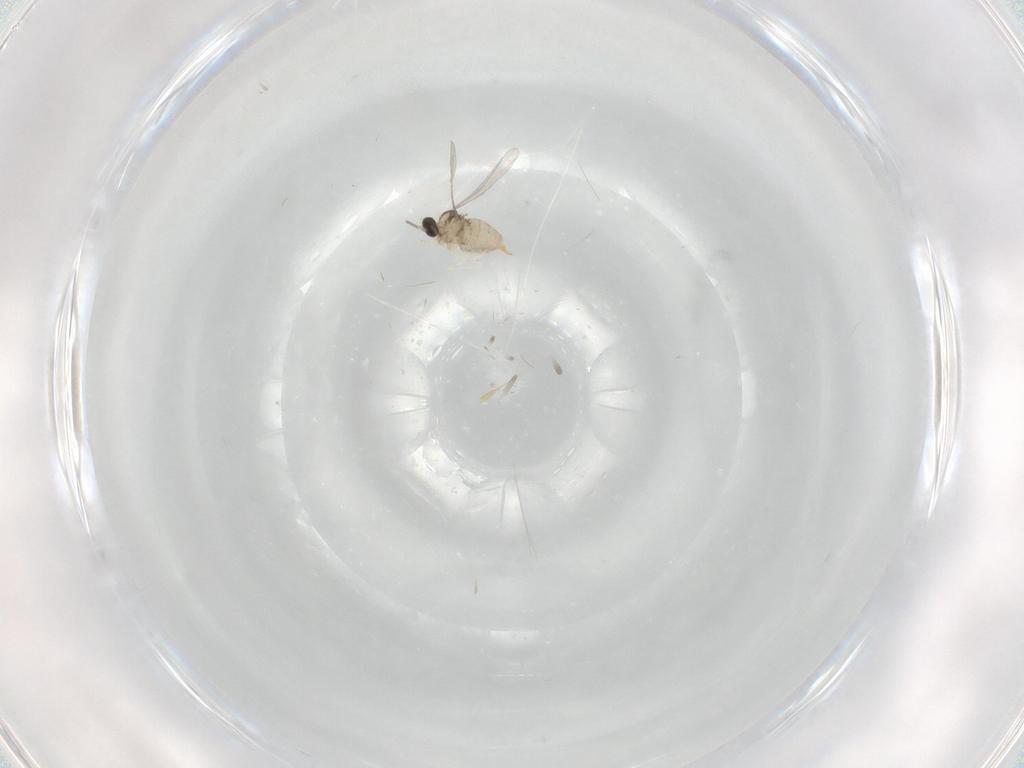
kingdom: Animalia
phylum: Arthropoda
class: Insecta
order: Diptera
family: Cecidomyiidae
